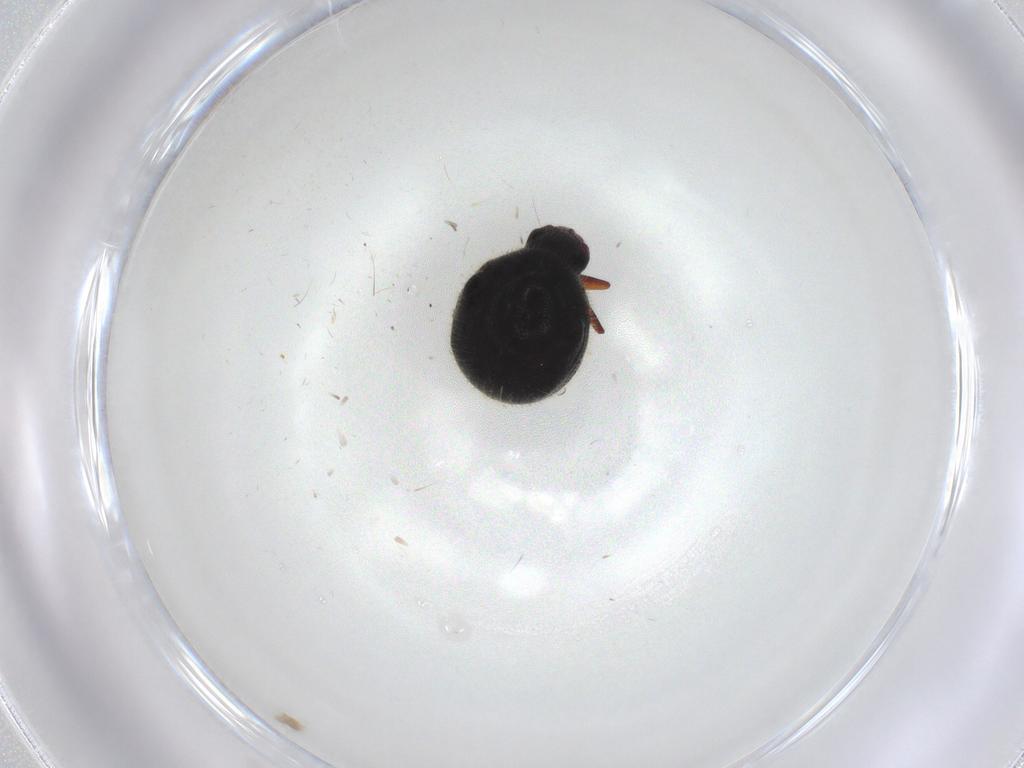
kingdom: Animalia
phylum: Arthropoda
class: Insecta
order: Coleoptera
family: Ptinidae
